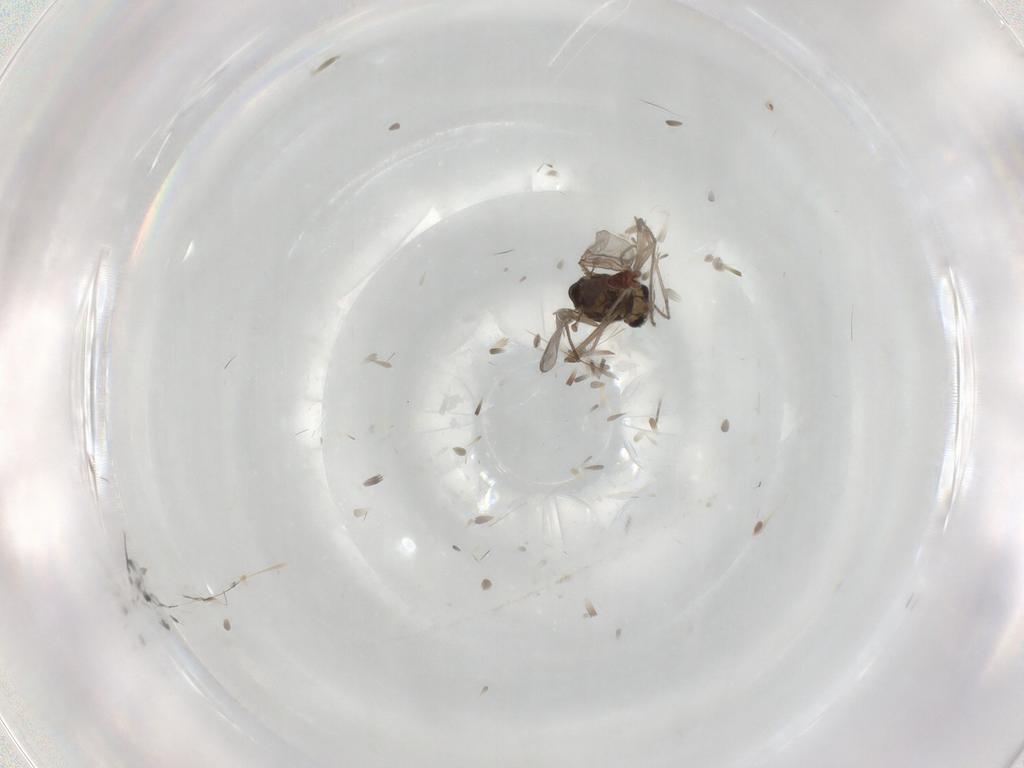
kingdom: Animalia
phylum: Arthropoda
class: Insecta
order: Diptera
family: Chironomidae
